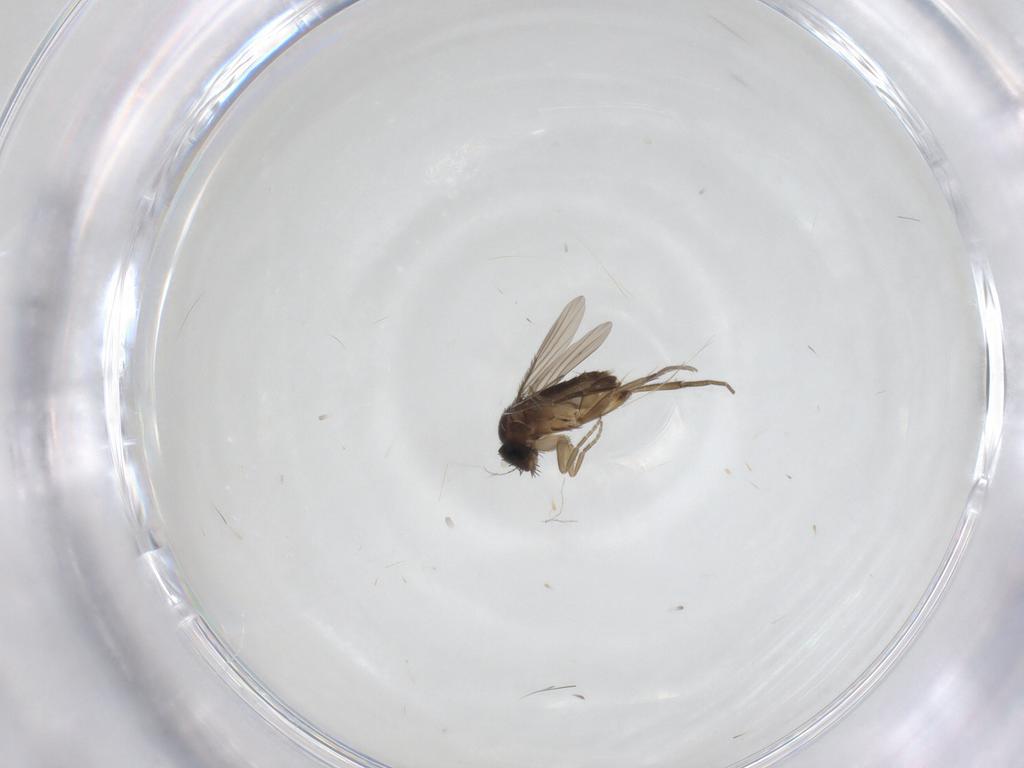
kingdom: Animalia
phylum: Arthropoda
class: Insecta
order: Diptera
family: Phoridae
